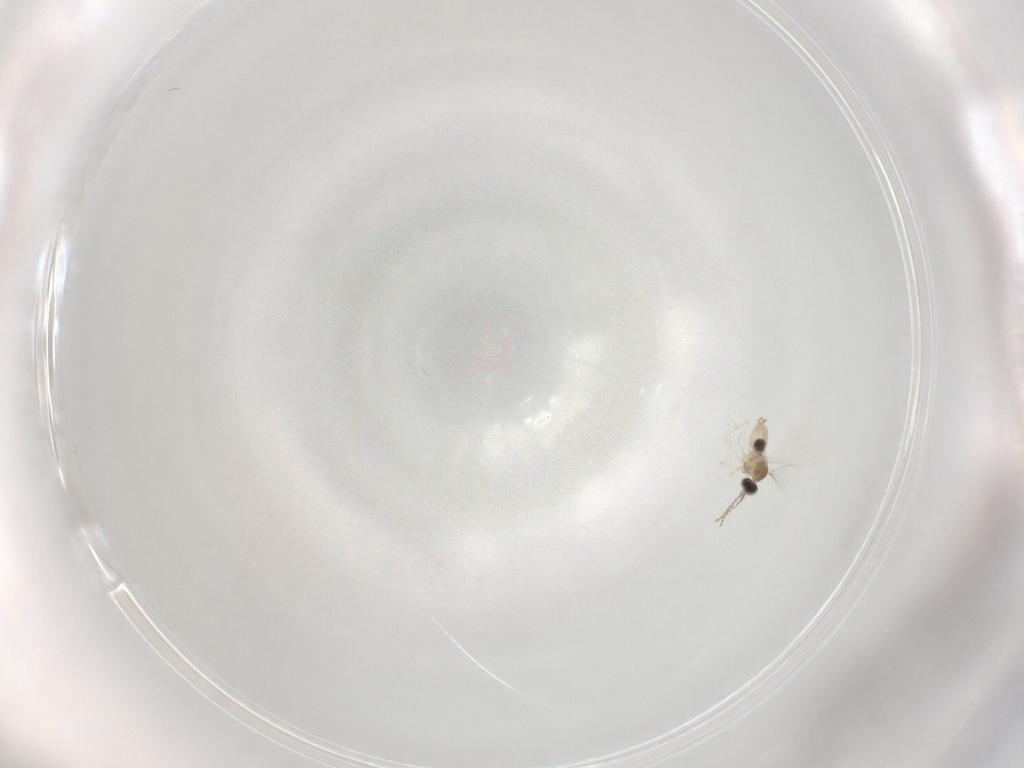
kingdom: Animalia
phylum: Arthropoda
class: Insecta
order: Diptera
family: Cecidomyiidae
